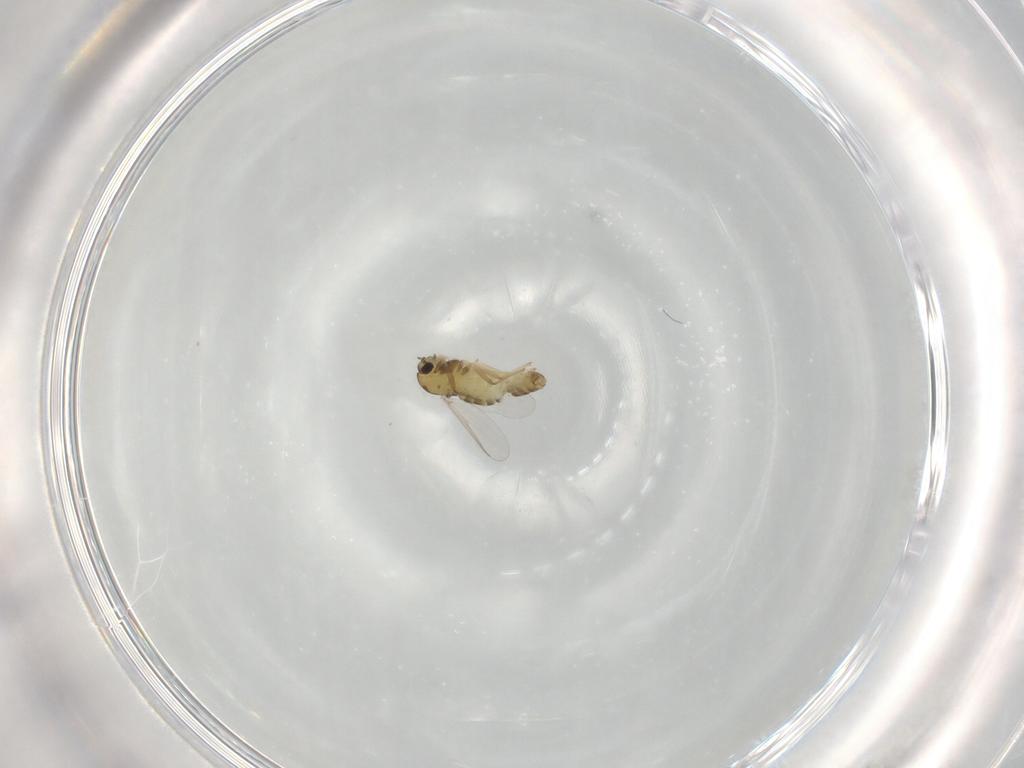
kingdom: Animalia
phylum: Arthropoda
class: Insecta
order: Diptera
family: Chironomidae
